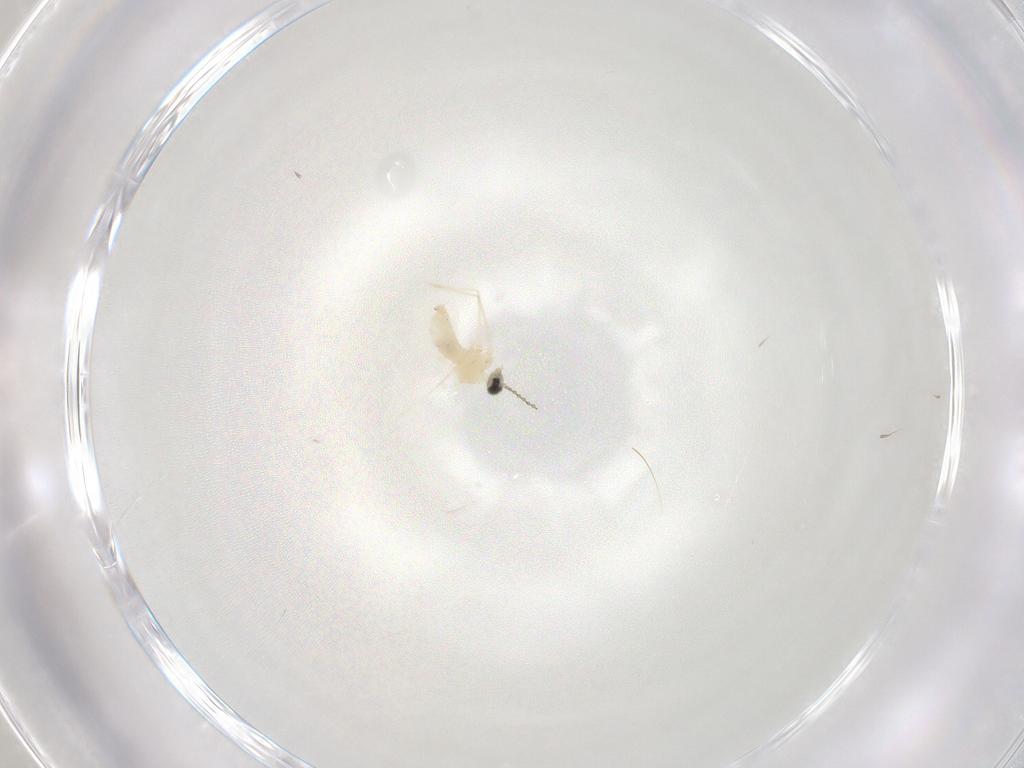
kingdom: Animalia
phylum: Arthropoda
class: Insecta
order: Diptera
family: Cecidomyiidae
